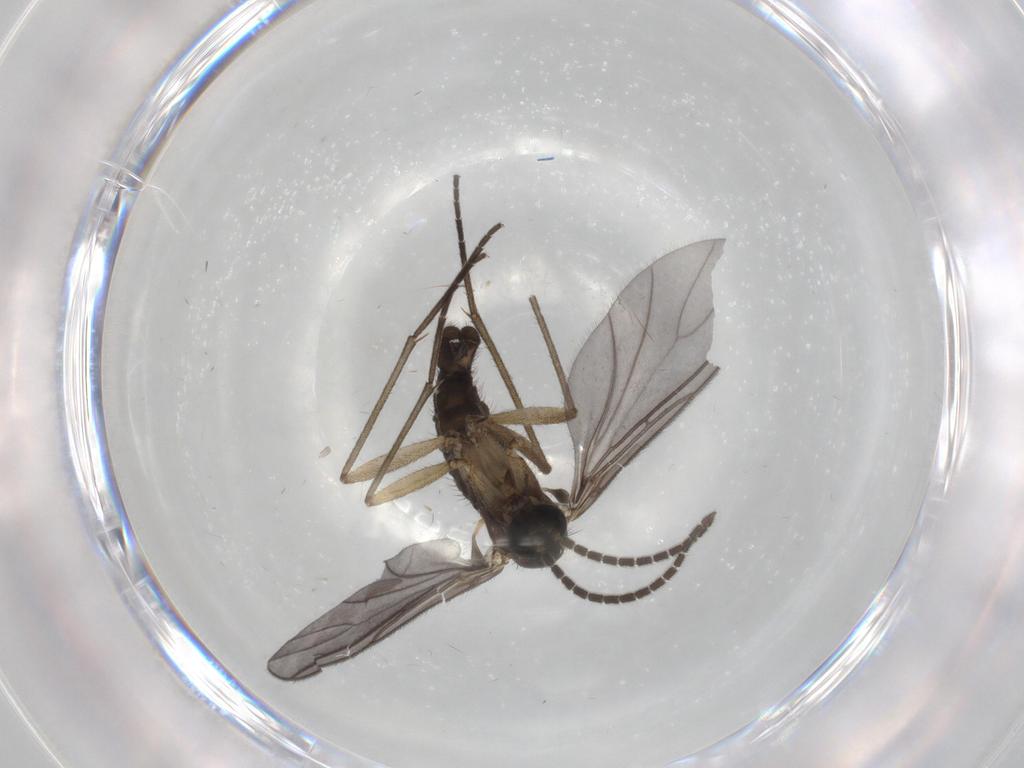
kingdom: Animalia
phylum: Arthropoda
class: Insecta
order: Diptera
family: Sciaridae
